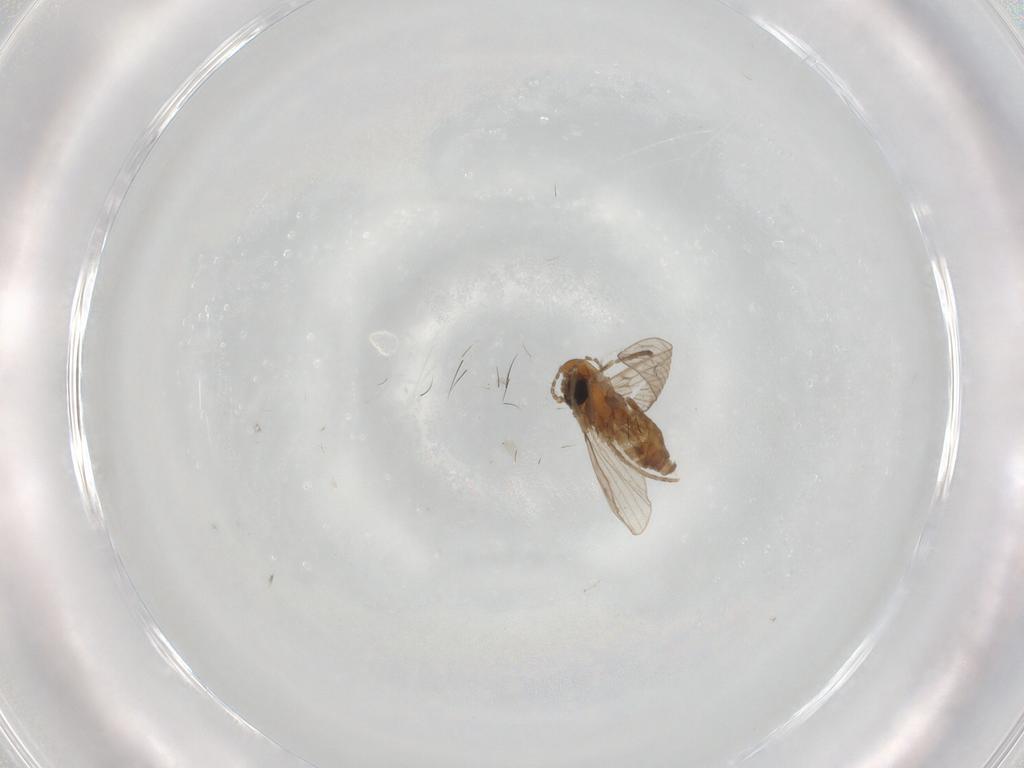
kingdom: Animalia
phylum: Arthropoda
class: Insecta
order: Diptera
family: Psychodidae
